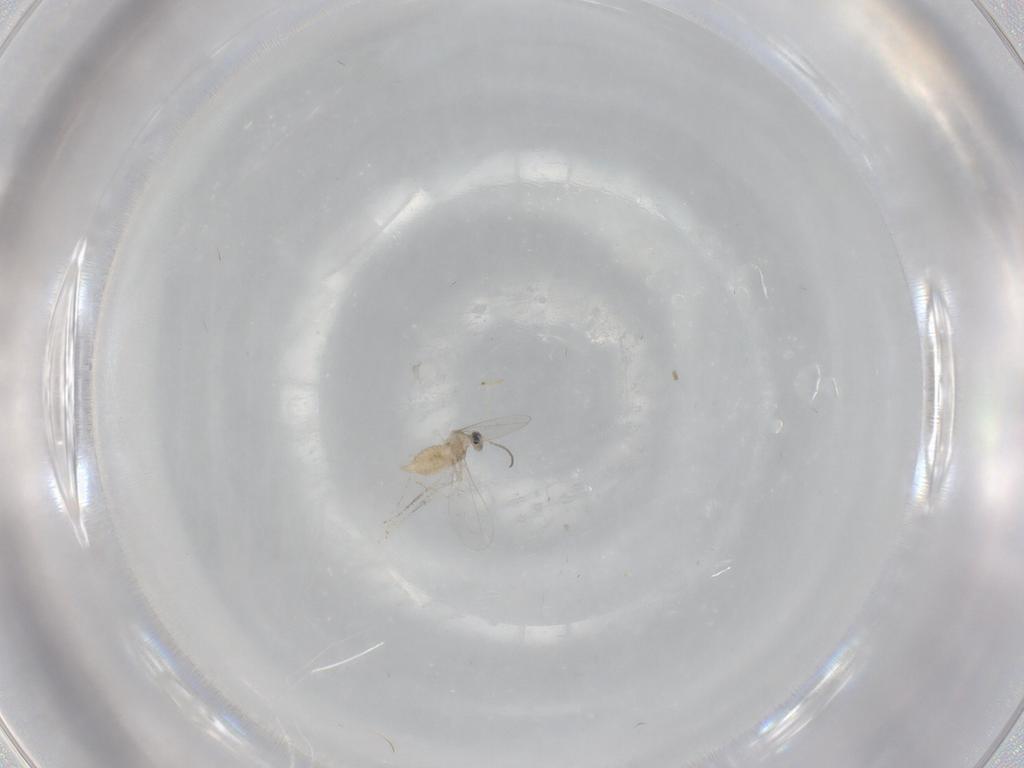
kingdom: Animalia
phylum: Arthropoda
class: Insecta
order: Diptera
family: Cecidomyiidae
